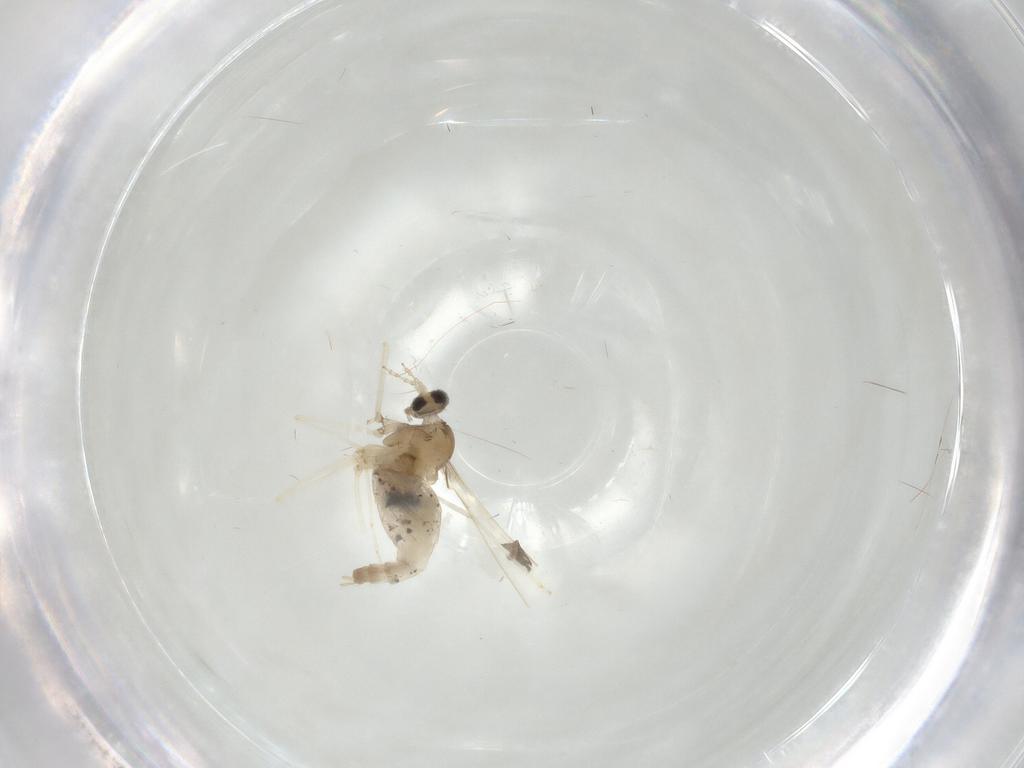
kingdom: Animalia
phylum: Arthropoda
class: Insecta
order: Diptera
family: Cecidomyiidae
